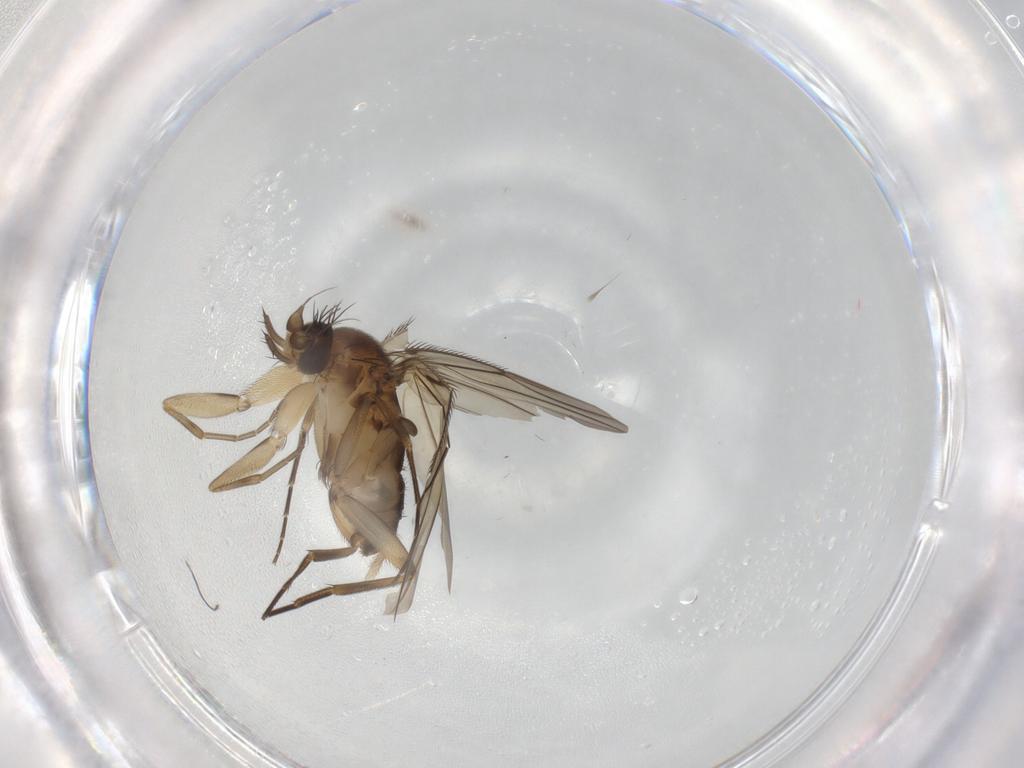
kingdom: Animalia
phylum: Arthropoda
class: Insecta
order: Diptera
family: Phoridae
